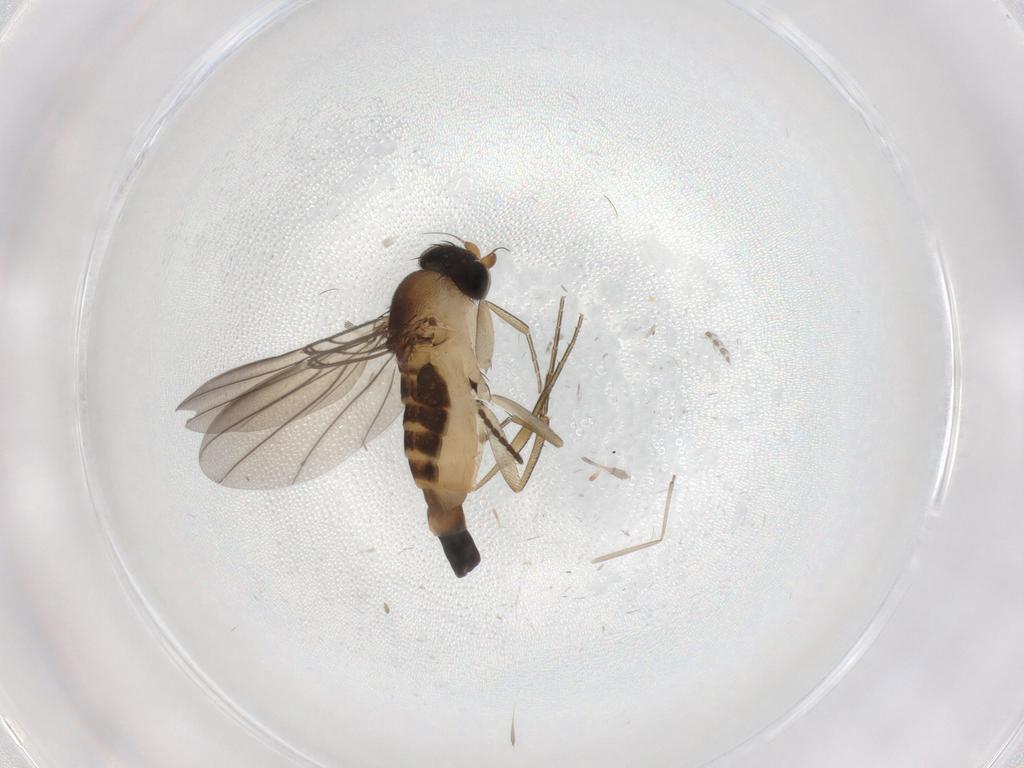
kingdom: Animalia
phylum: Arthropoda
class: Insecta
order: Diptera
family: Phoridae
